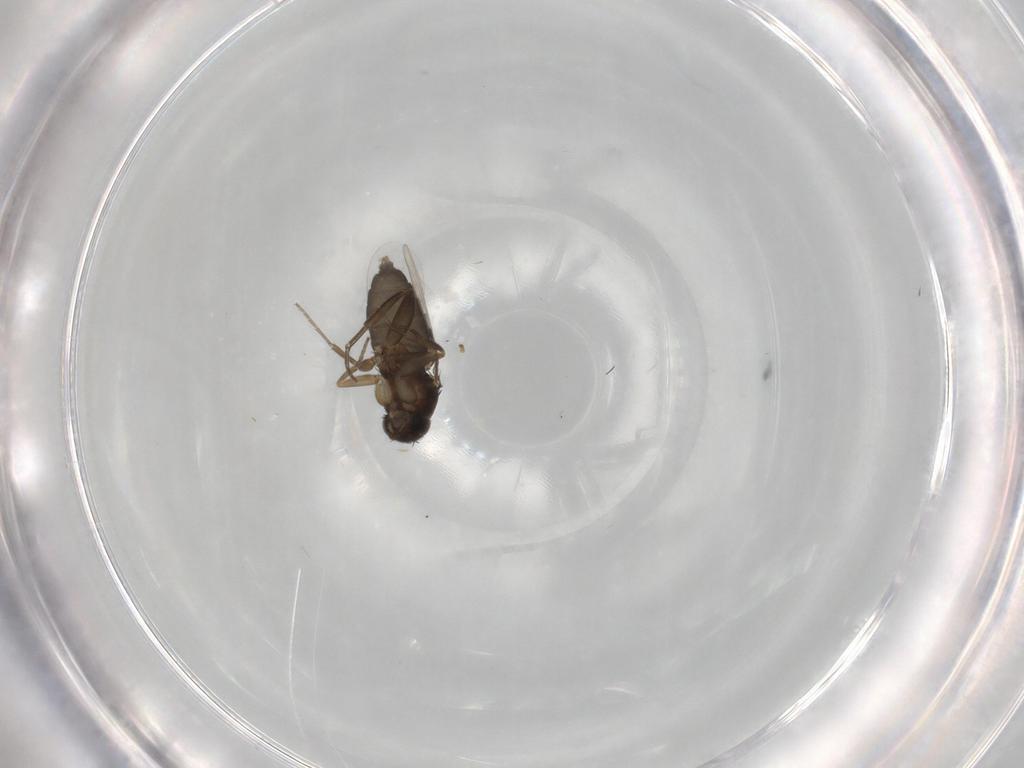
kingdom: Animalia
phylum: Arthropoda
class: Insecta
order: Diptera
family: Phoridae
